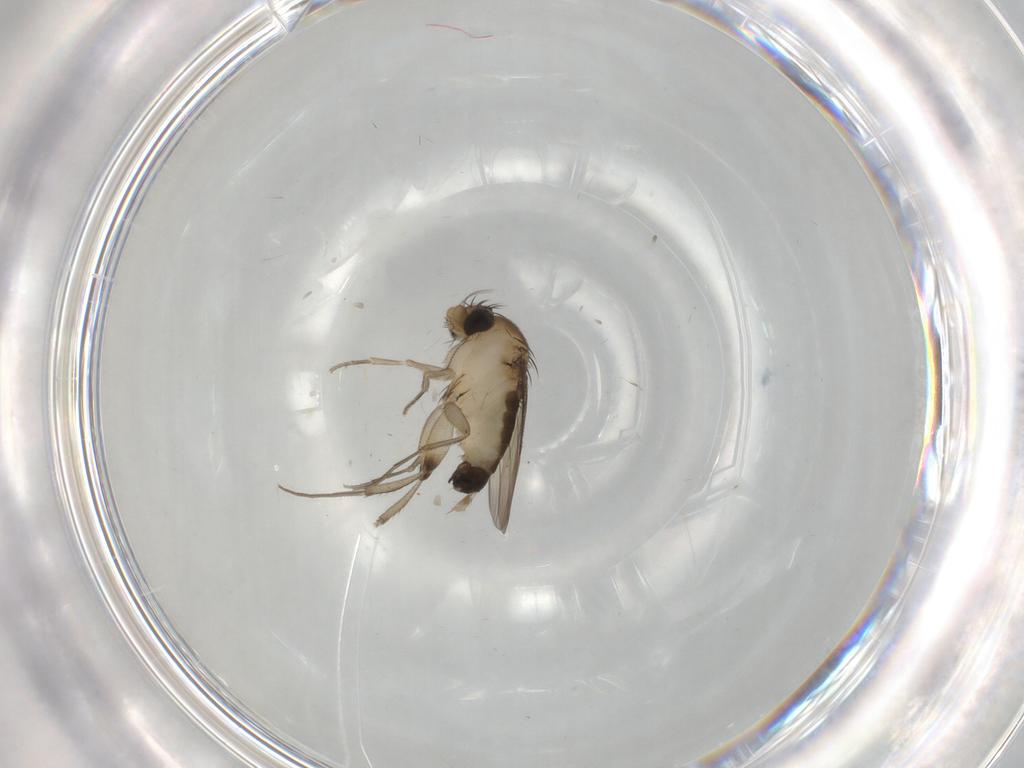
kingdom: Animalia
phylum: Arthropoda
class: Insecta
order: Diptera
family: Phoridae
